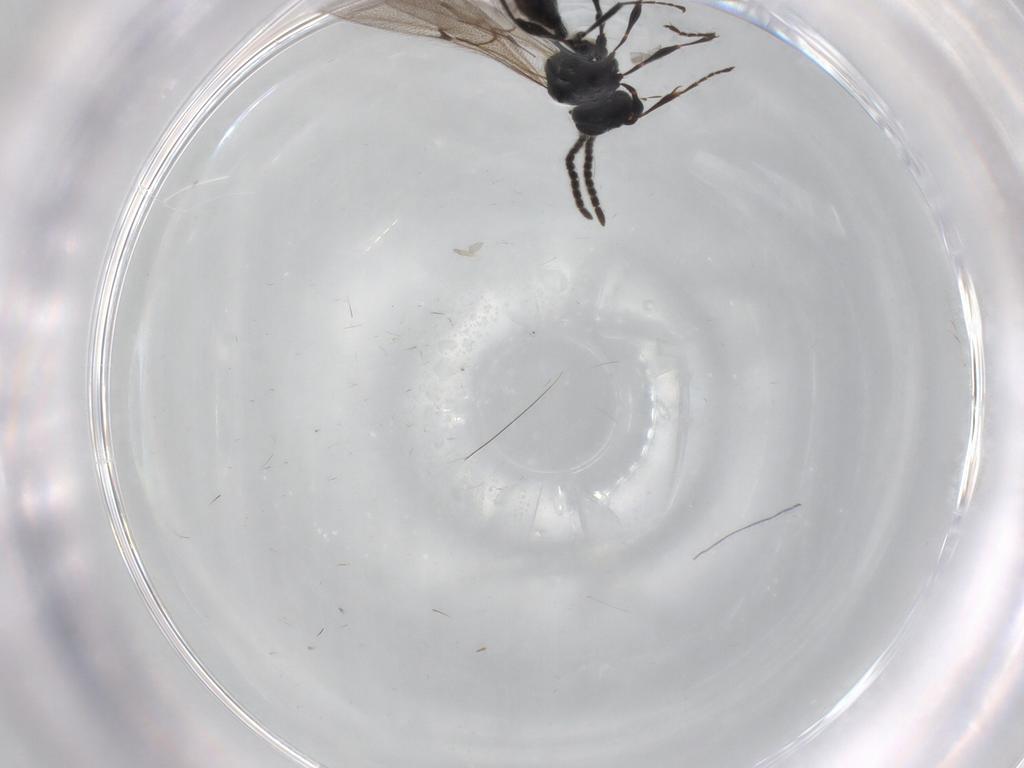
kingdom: Animalia
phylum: Arthropoda
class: Insecta
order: Hymenoptera
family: Diapriidae
